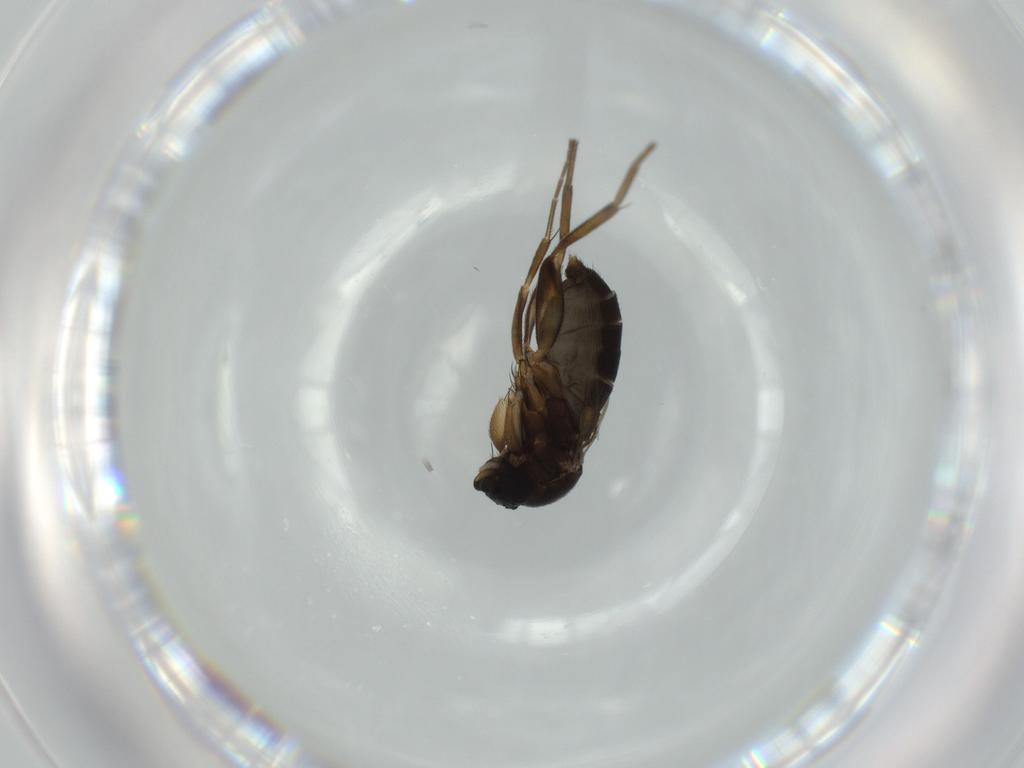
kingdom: Animalia
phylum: Arthropoda
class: Insecta
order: Diptera
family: Phoridae
